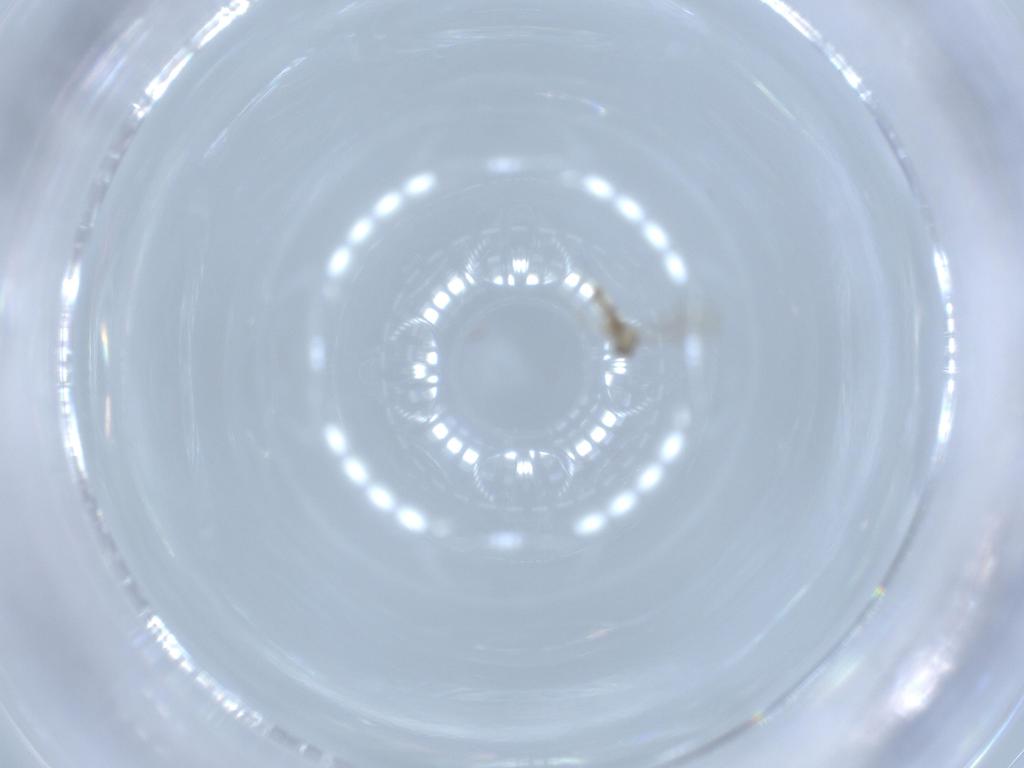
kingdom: Animalia
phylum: Arthropoda
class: Insecta
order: Diptera
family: Cecidomyiidae
